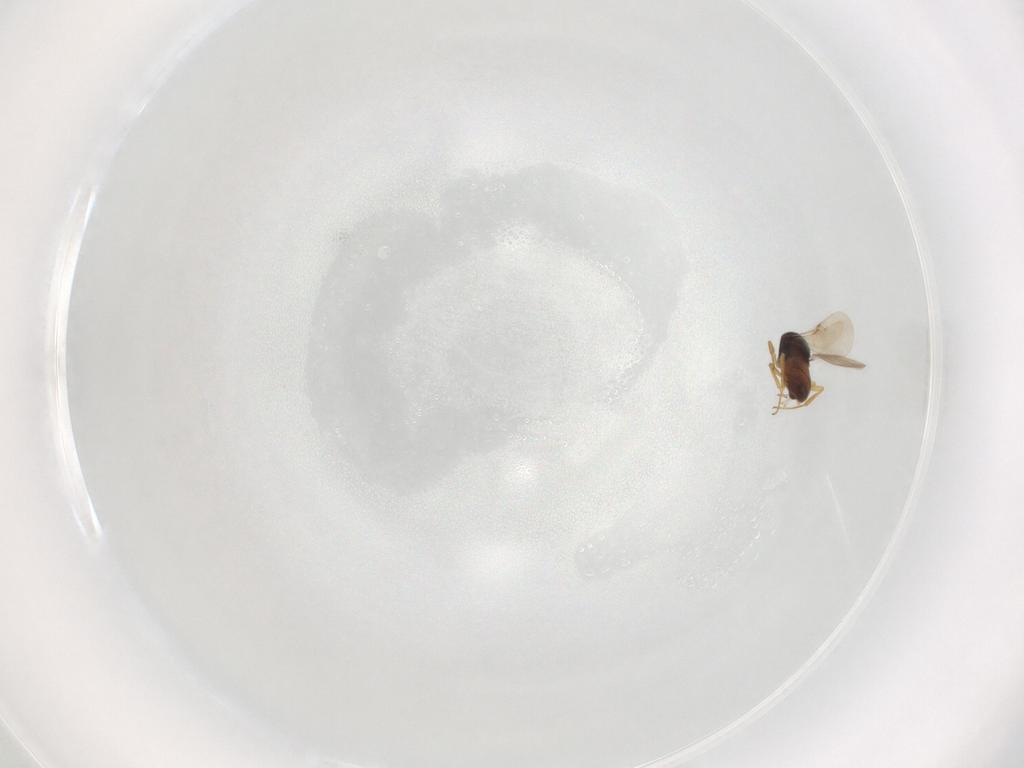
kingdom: Animalia
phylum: Arthropoda
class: Insecta
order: Hymenoptera
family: Scelionidae
